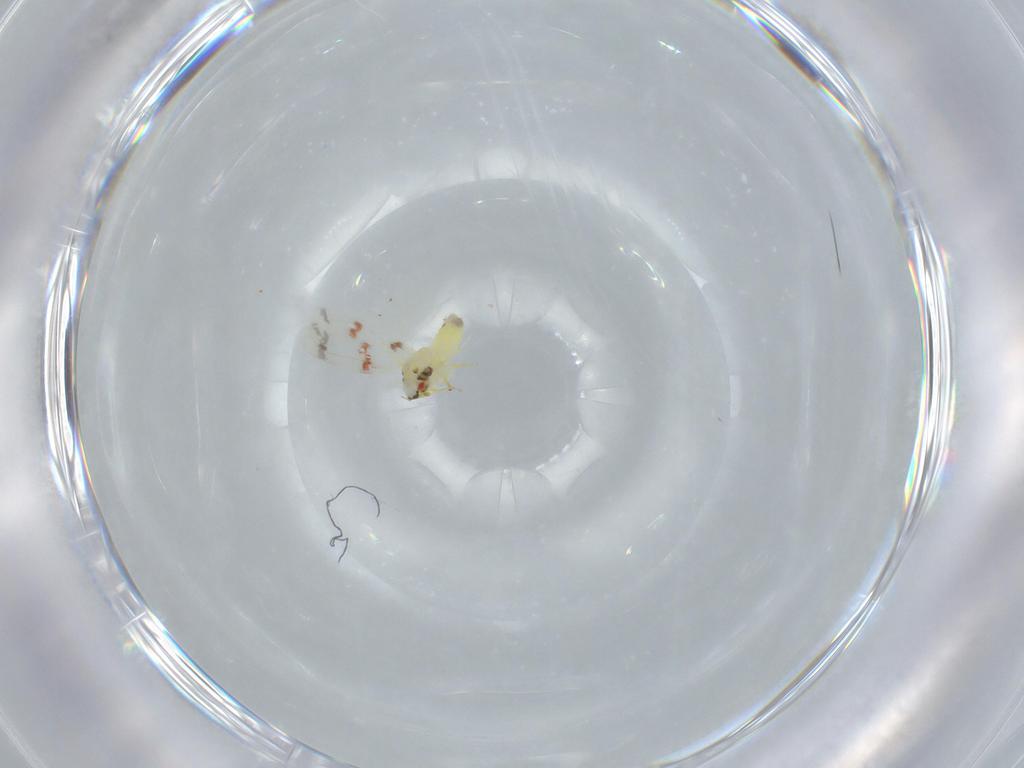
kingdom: Animalia
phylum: Arthropoda
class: Insecta
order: Hemiptera
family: Aleyrodidae
